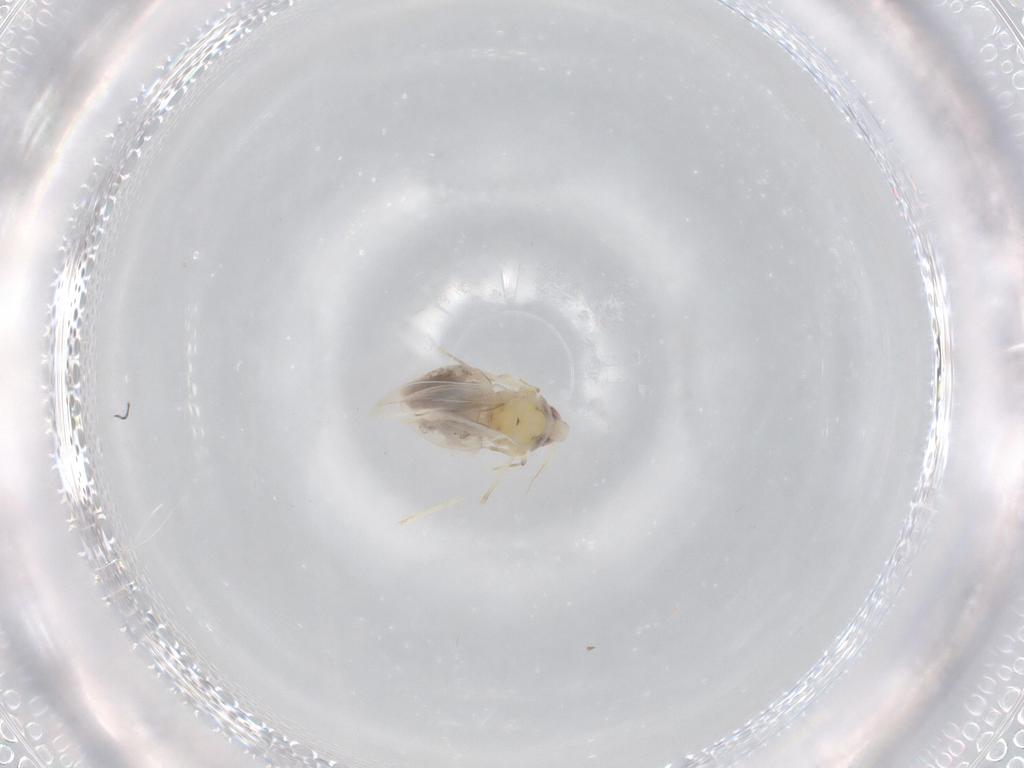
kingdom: Animalia
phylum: Arthropoda
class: Insecta
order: Hemiptera
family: Aleyrodidae
